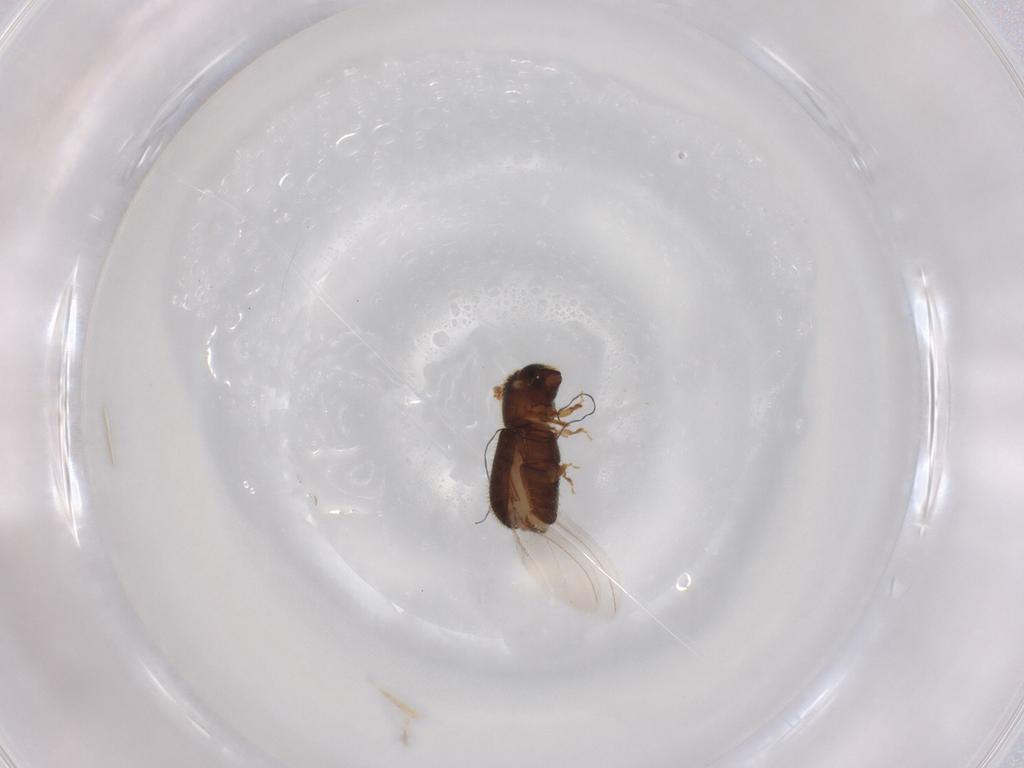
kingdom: Animalia
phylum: Arthropoda
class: Insecta
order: Coleoptera
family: Curculionidae
